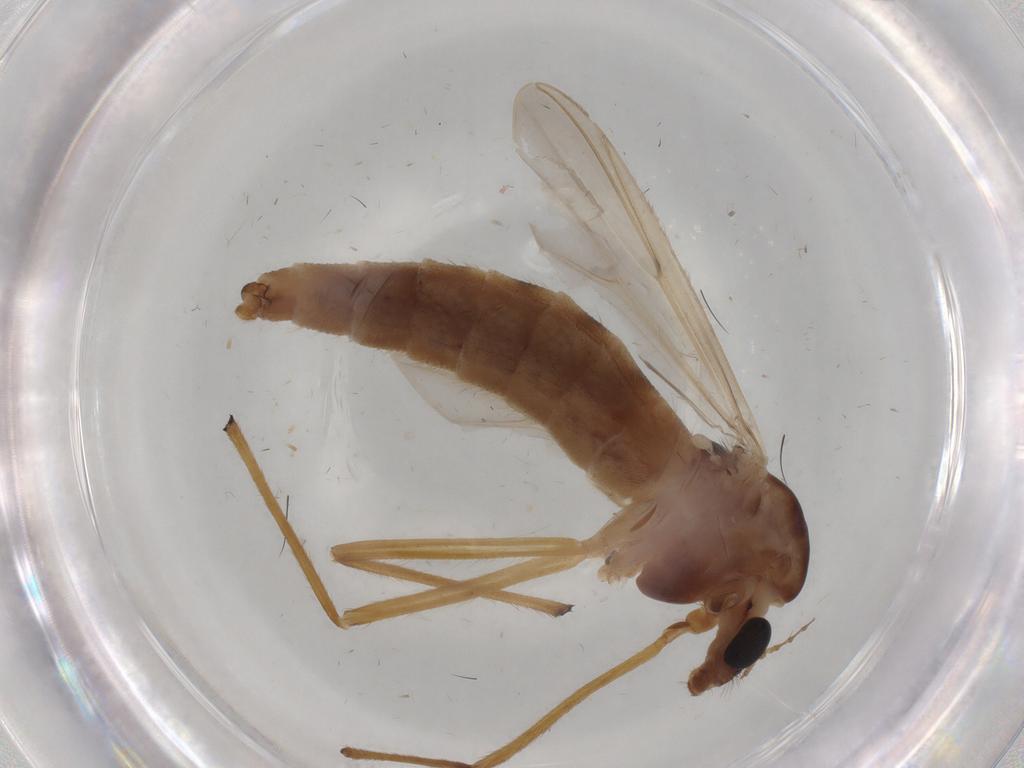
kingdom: Animalia
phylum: Arthropoda
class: Insecta
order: Diptera
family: Chironomidae
